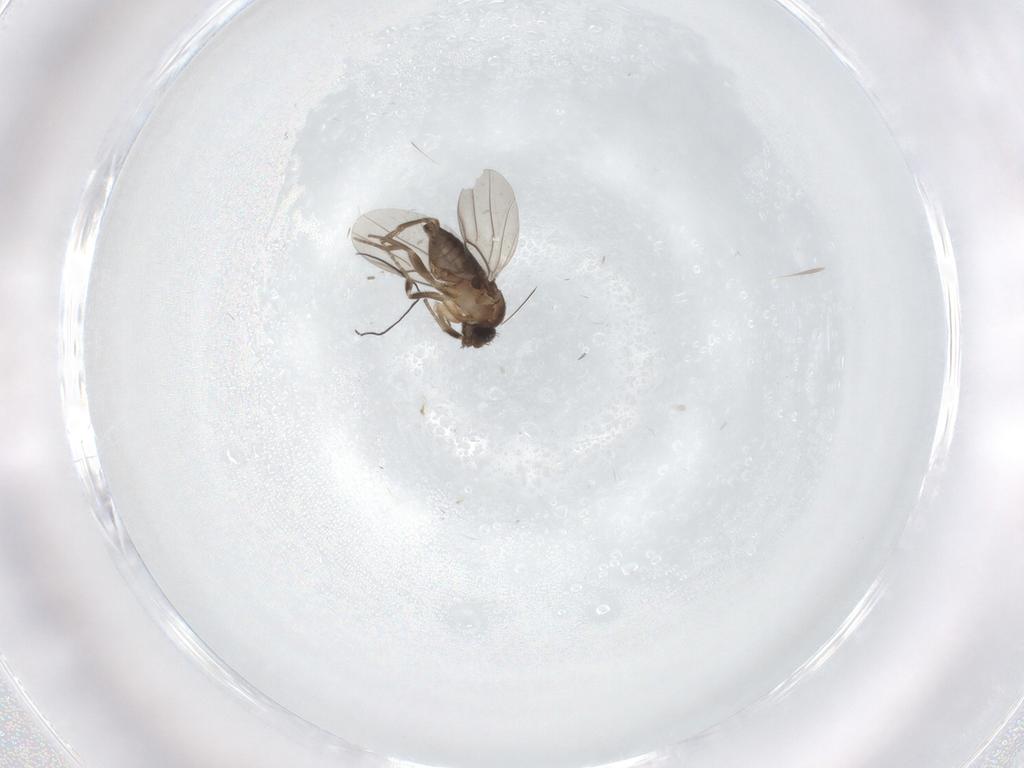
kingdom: Animalia
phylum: Arthropoda
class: Insecta
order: Diptera
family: Phoridae
